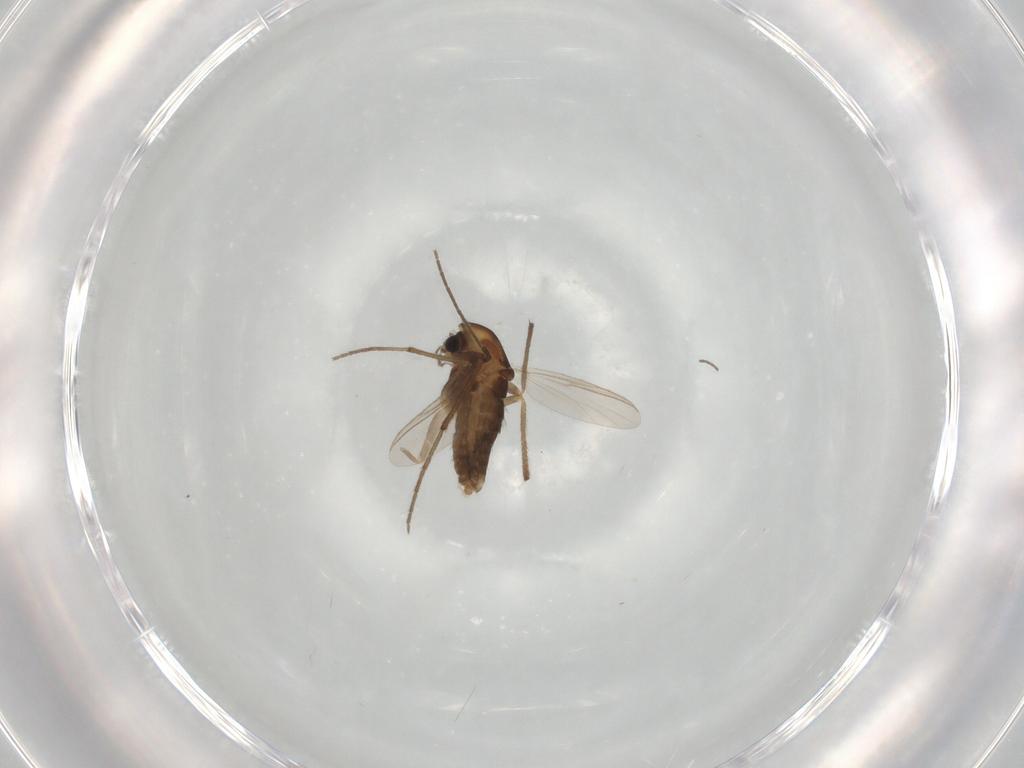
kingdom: Animalia
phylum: Arthropoda
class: Insecta
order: Diptera
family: Chironomidae
